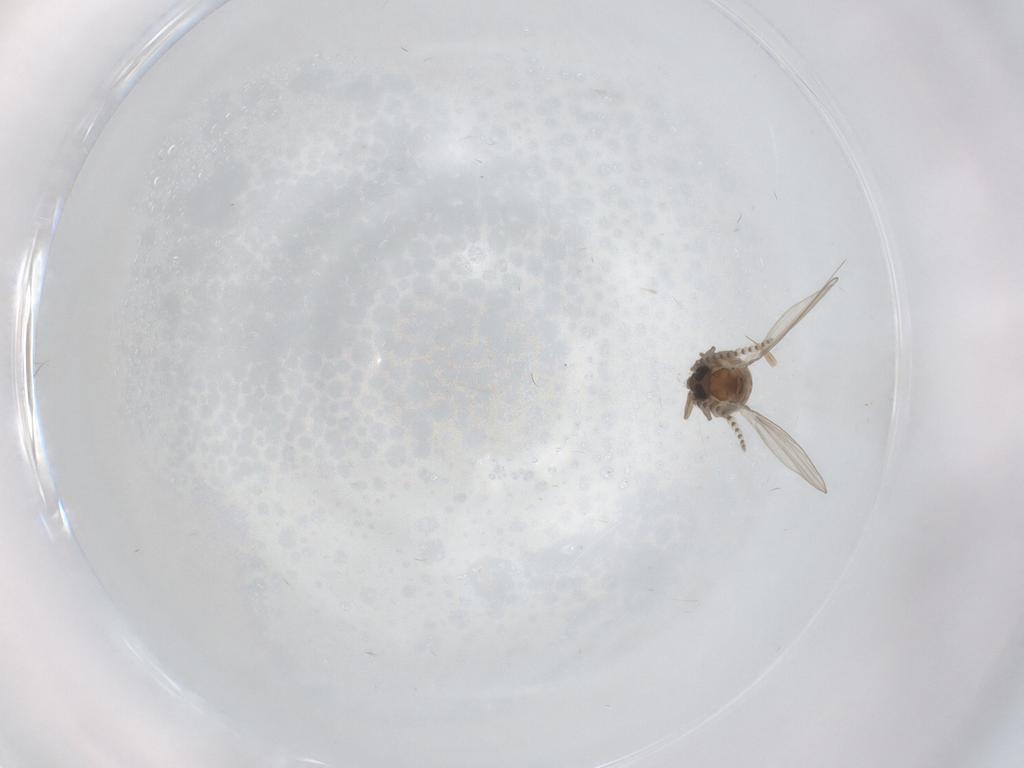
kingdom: Animalia
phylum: Arthropoda
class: Insecta
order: Diptera
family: Psychodidae
